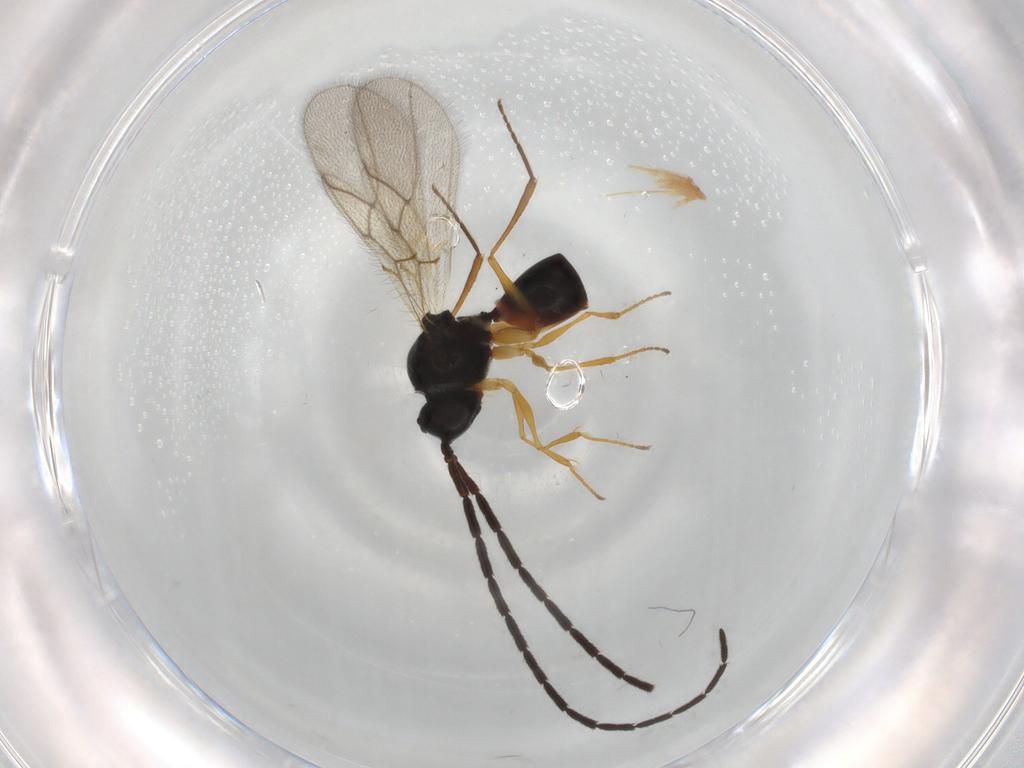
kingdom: Animalia
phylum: Arthropoda
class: Insecta
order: Hymenoptera
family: Figitidae
